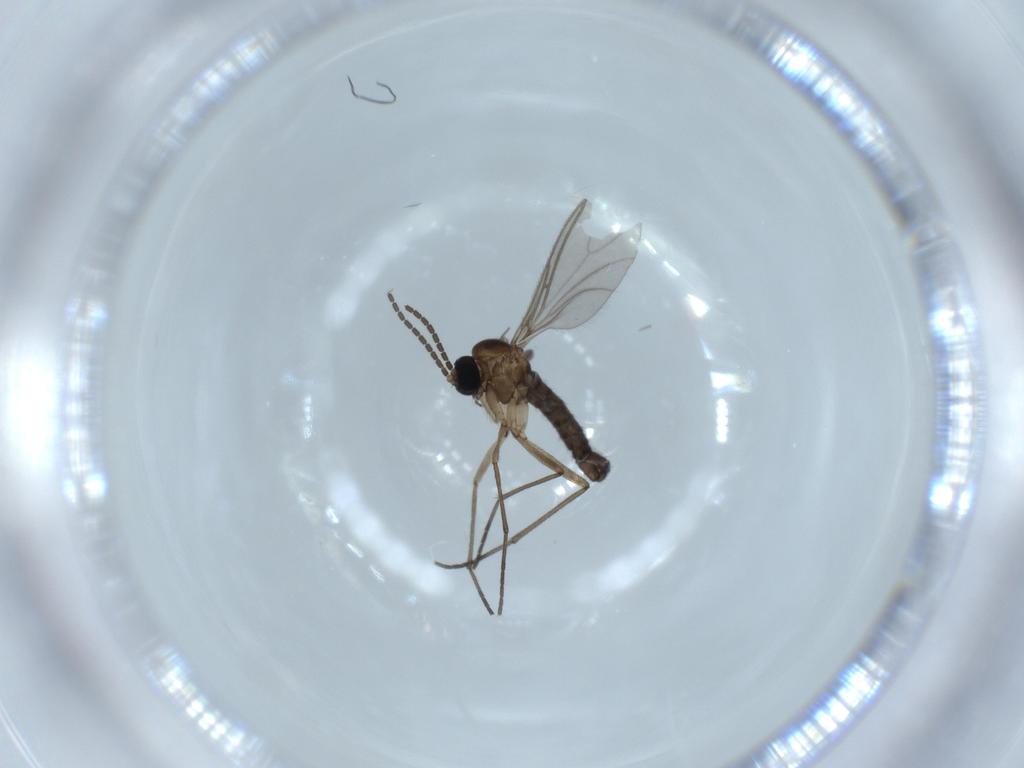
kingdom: Animalia
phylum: Arthropoda
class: Insecta
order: Diptera
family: Sciaridae
